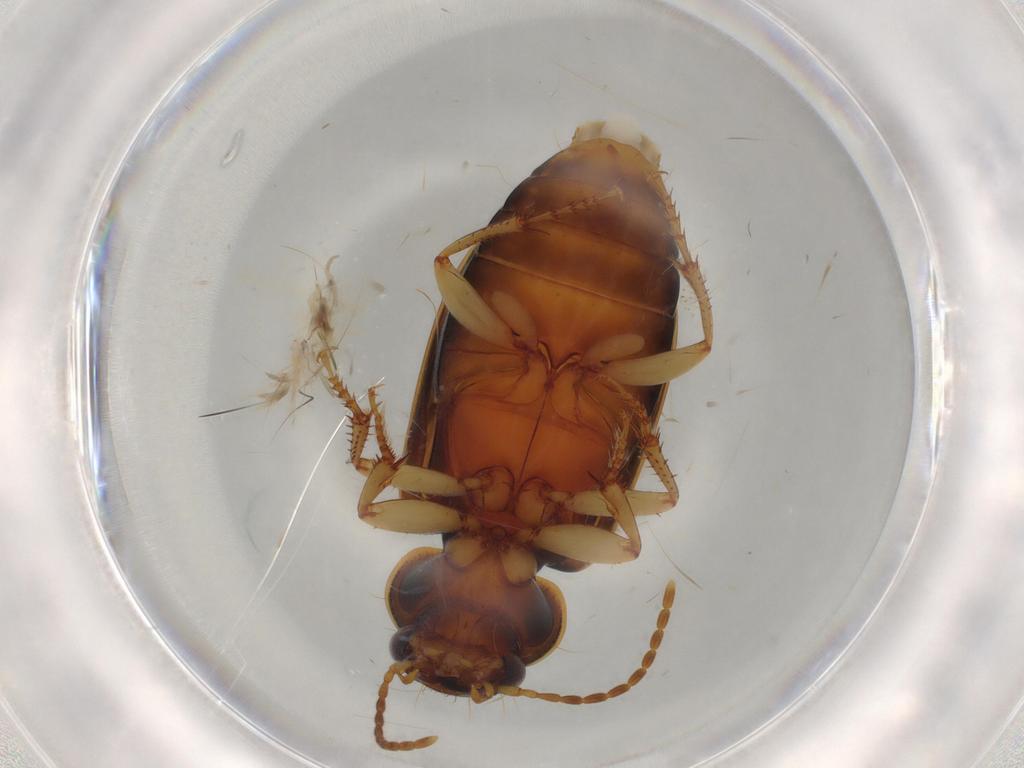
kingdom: Animalia
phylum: Arthropoda
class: Insecta
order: Coleoptera
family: Carabidae
